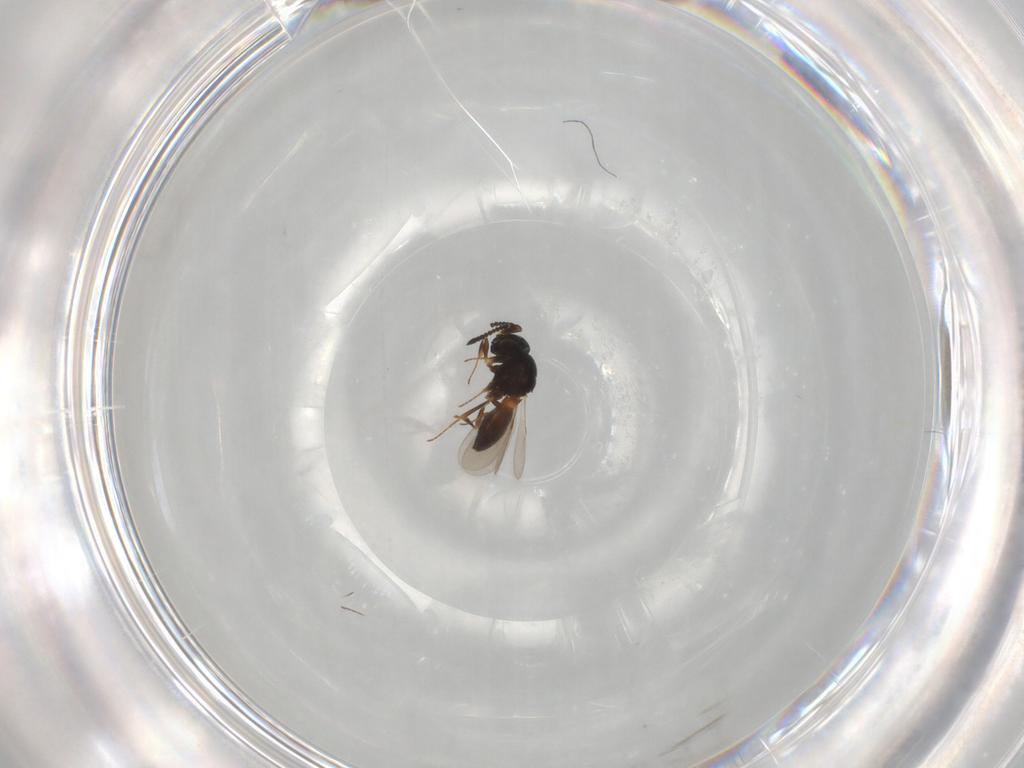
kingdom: Animalia
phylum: Arthropoda
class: Insecta
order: Hymenoptera
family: Scelionidae
